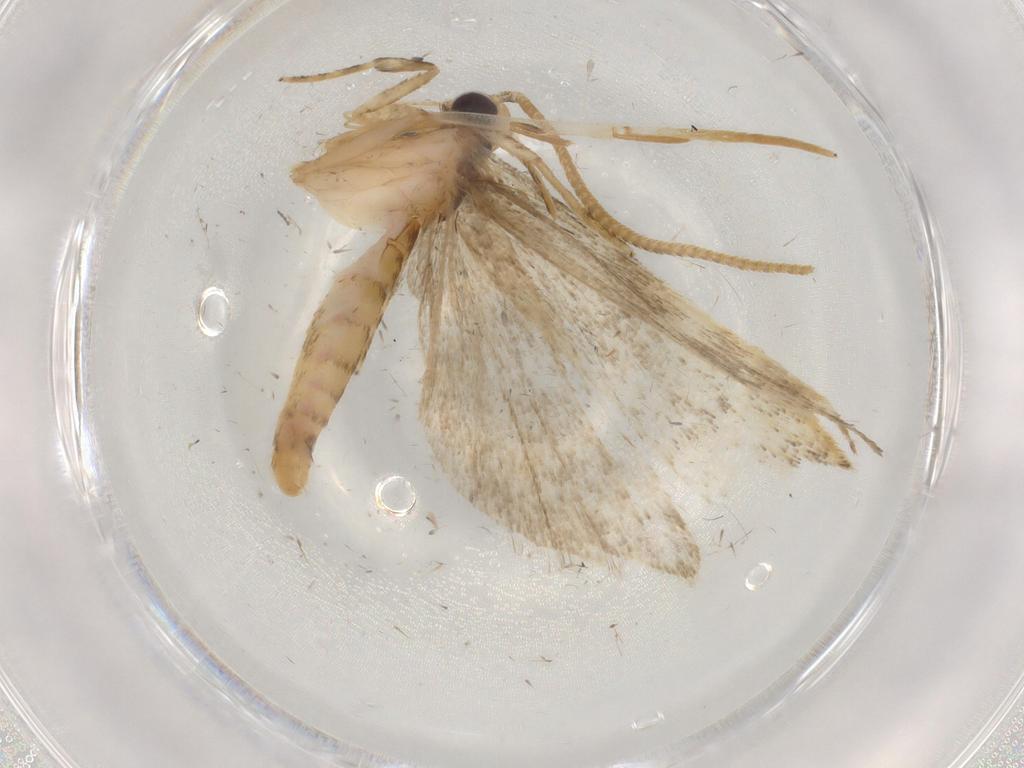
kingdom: Animalia
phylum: Arthropoda
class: Insecta
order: Lepidoptera
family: Autostichidae
